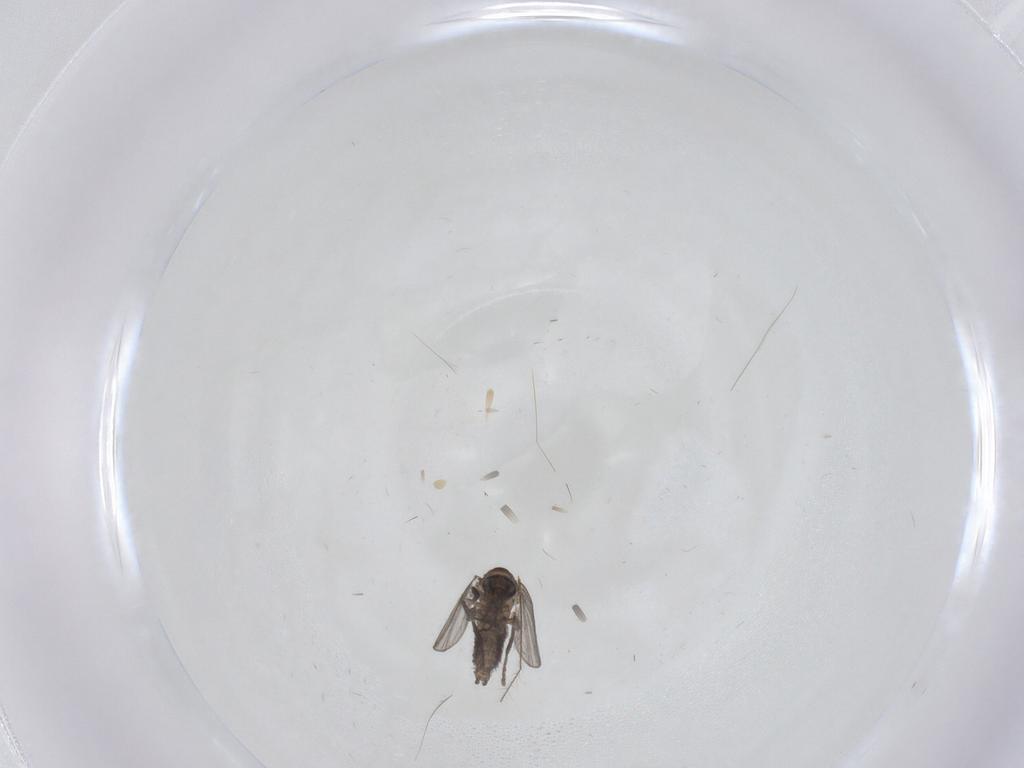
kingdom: Animalia
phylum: Arthropoda
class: Insecta
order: Diptera
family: Psychodidae
